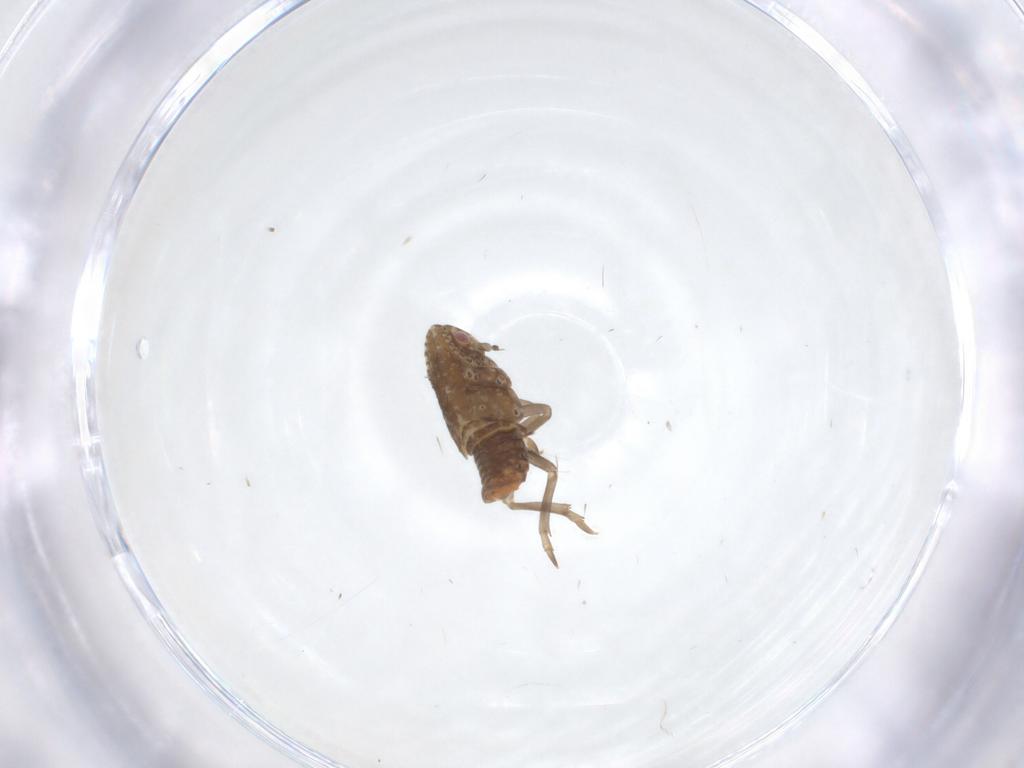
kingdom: Animalia
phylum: Arthropoda
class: Insecta
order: Hemiptera
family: Flatidae
